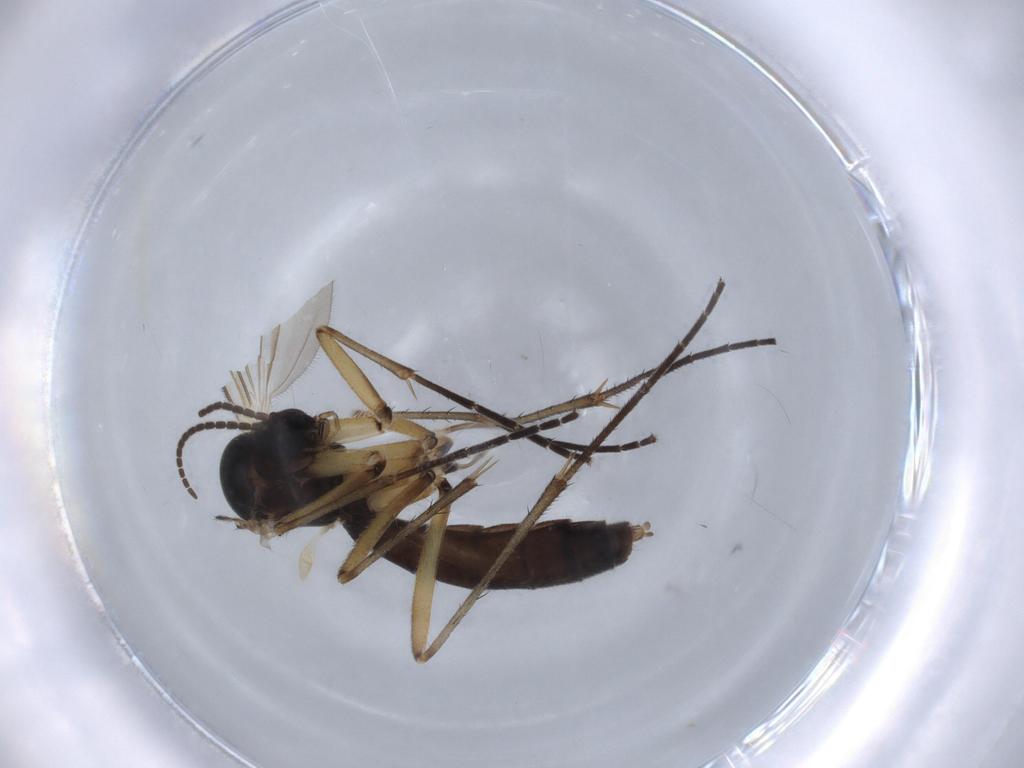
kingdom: Animalia
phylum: Arthropoda
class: Insecta
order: Diptera
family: Mycetophilidae
